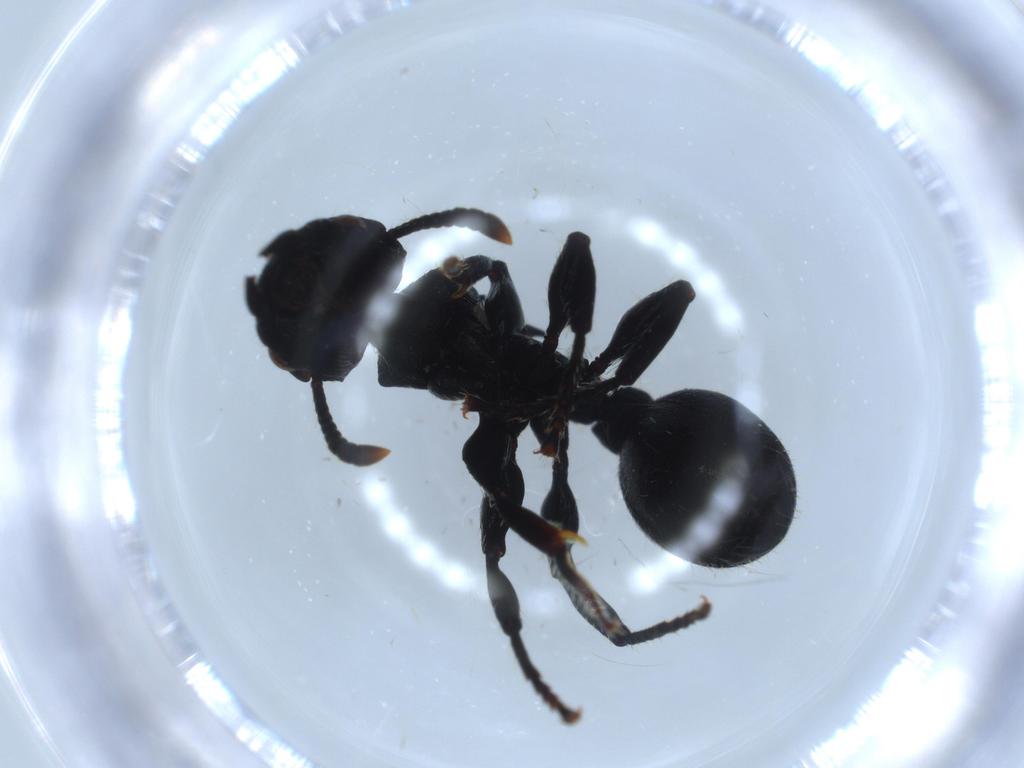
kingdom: Animalia
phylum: Arthropoda
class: Insecta
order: Hymenoptera
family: Formicidae
